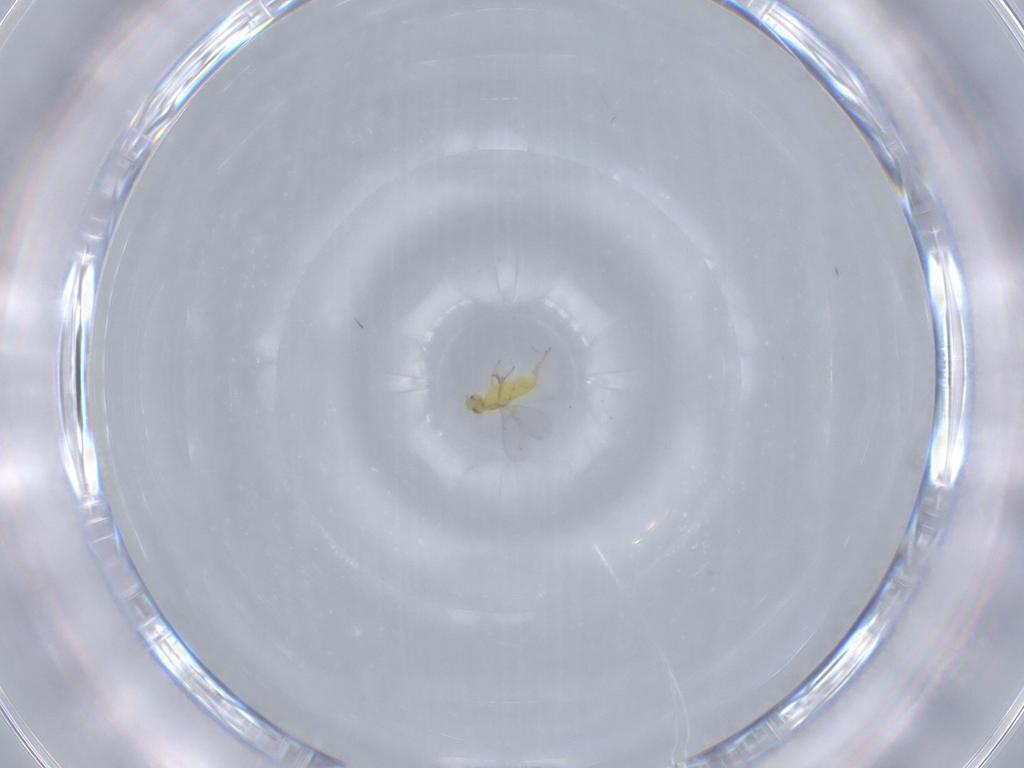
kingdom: Animalia
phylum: Arthropoda
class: Insecta
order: Hymenoptera
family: Aphelinidae
